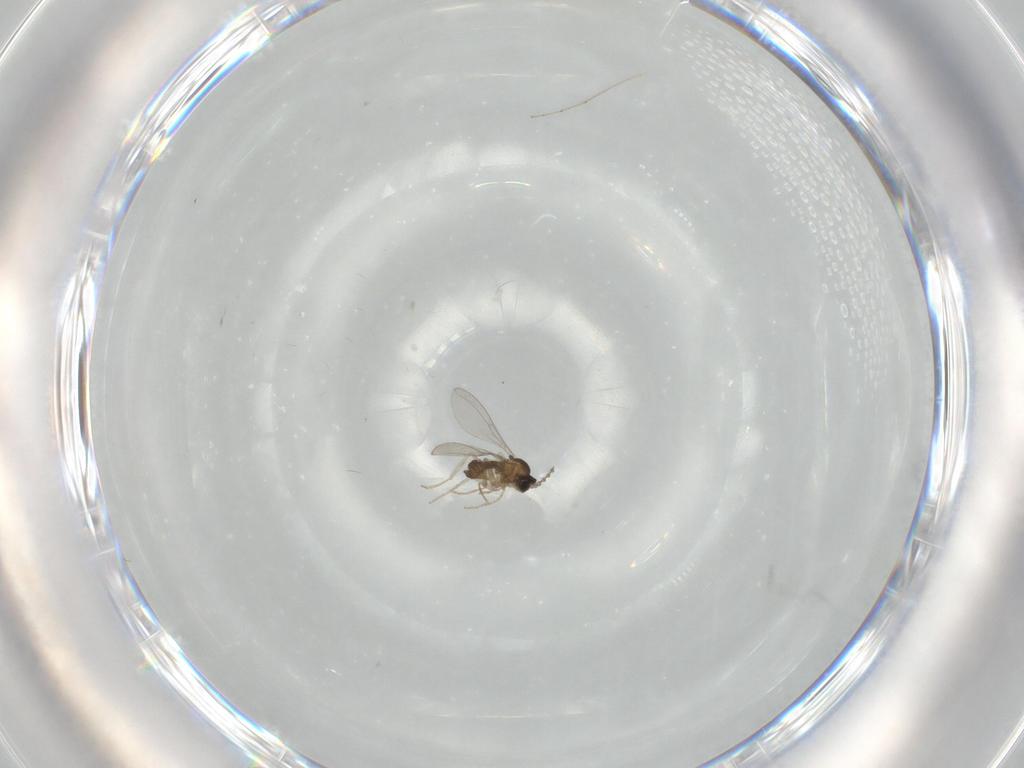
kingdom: Animalia
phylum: Arthropoda
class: Insecta
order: Diptera
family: Cecidomyiidae
